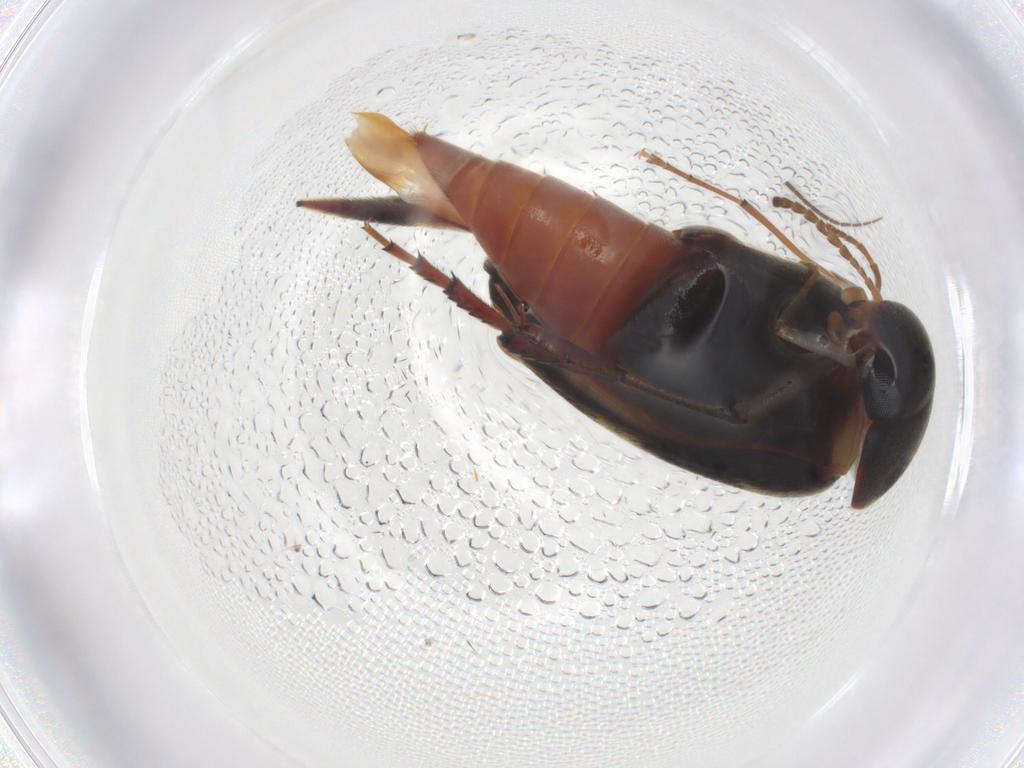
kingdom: Animalia
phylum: Arthropoda
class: Insecta
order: Coleoptera
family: Mordellidae
